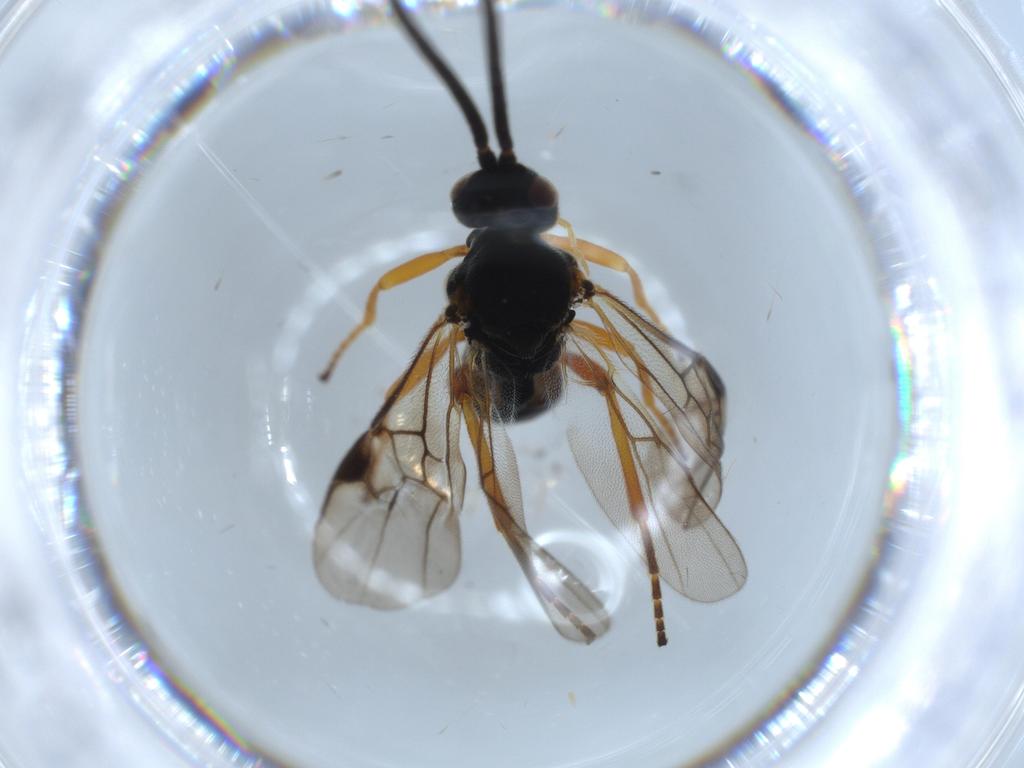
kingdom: Animalia
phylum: Arthropoda
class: Insecta
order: Hymenoptera
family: Braconidae
